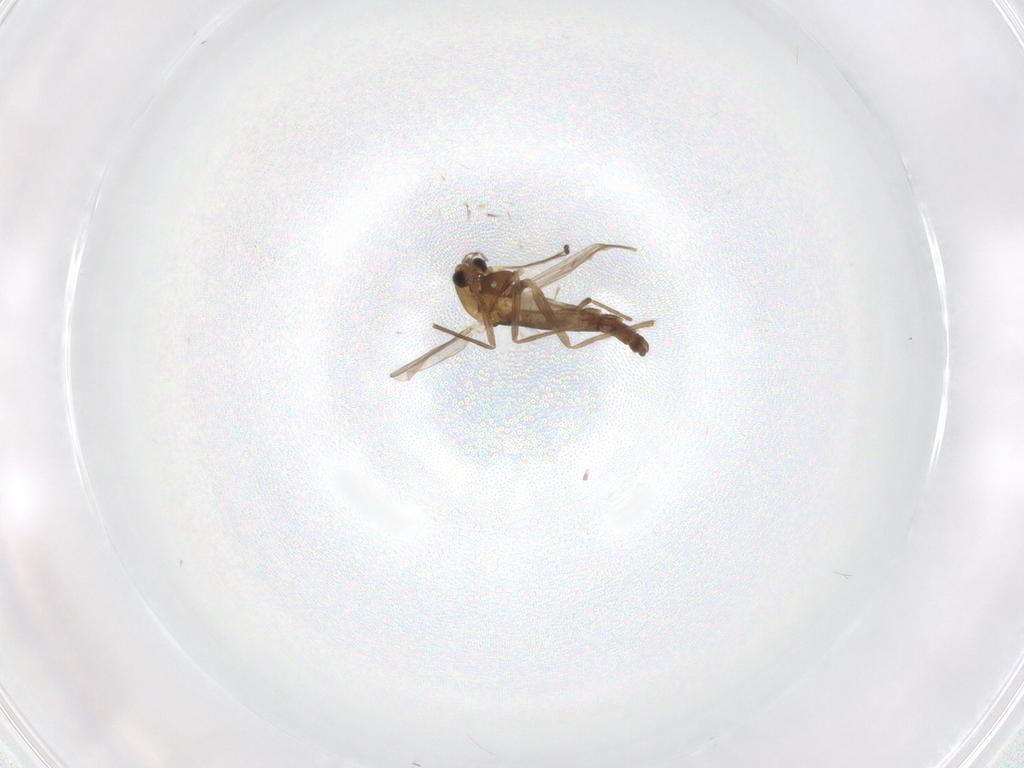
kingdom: Animalia
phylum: Arthropoda
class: Insecta
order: Diptera
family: Chironomidae
